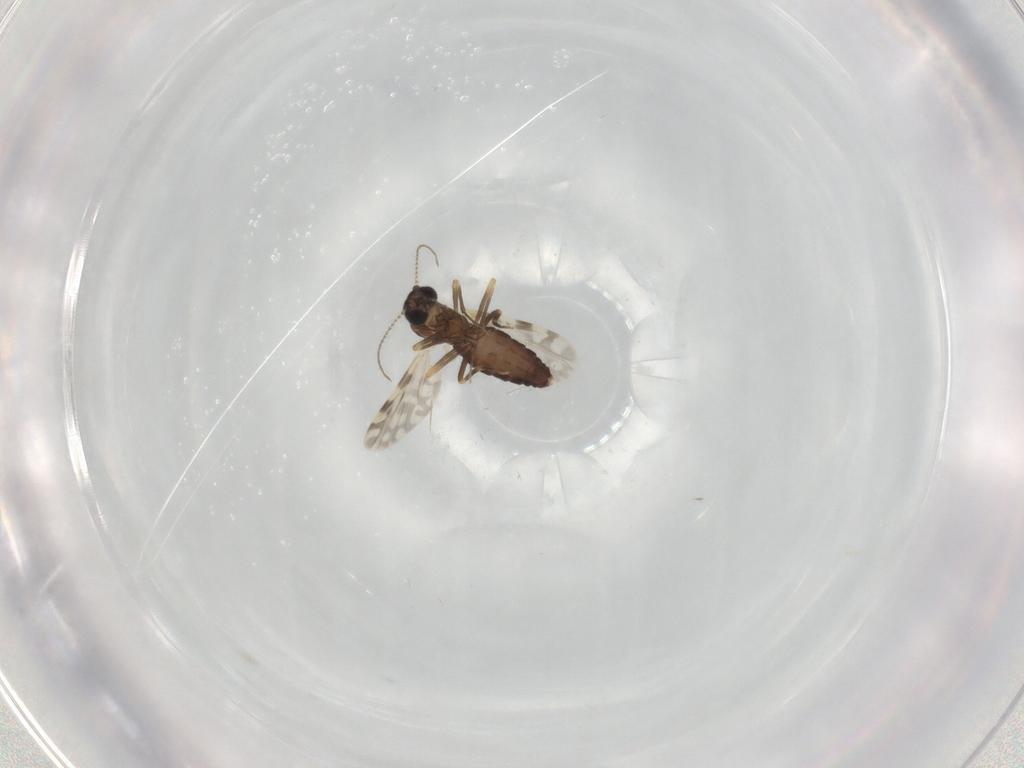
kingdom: Animalia
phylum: Arthropoda
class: Insecta
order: Diptera
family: Ceratopogonidae
